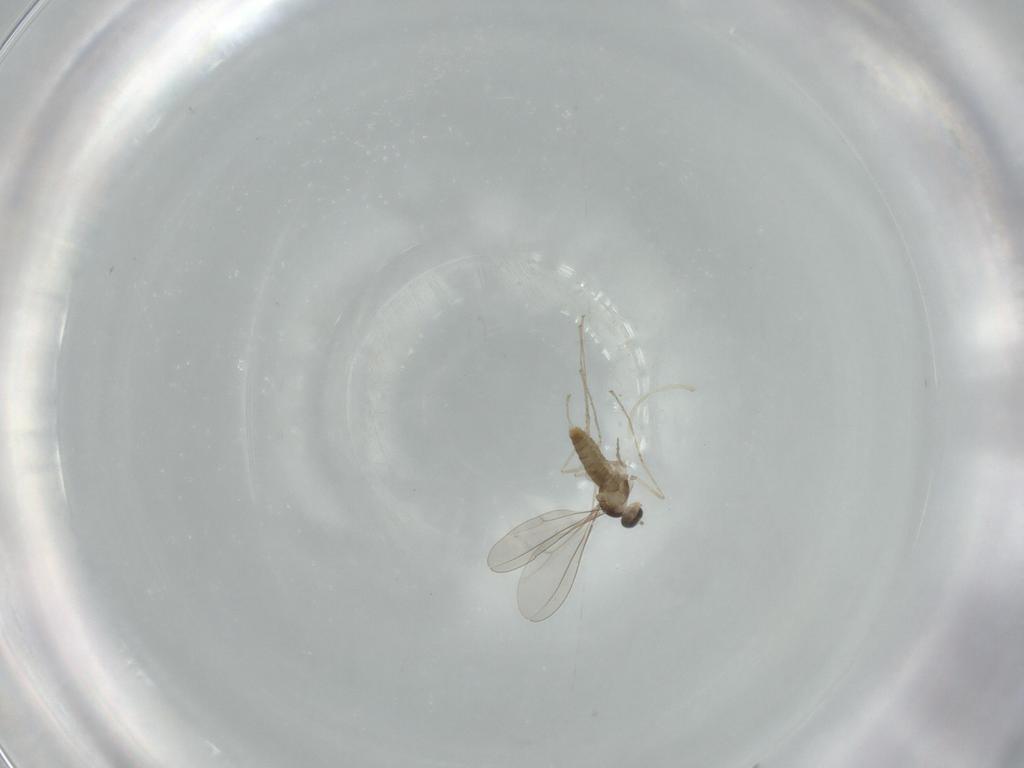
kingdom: Animalia
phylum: Arthropoda
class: Insecta
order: Diptera
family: Cecidomyiidae
